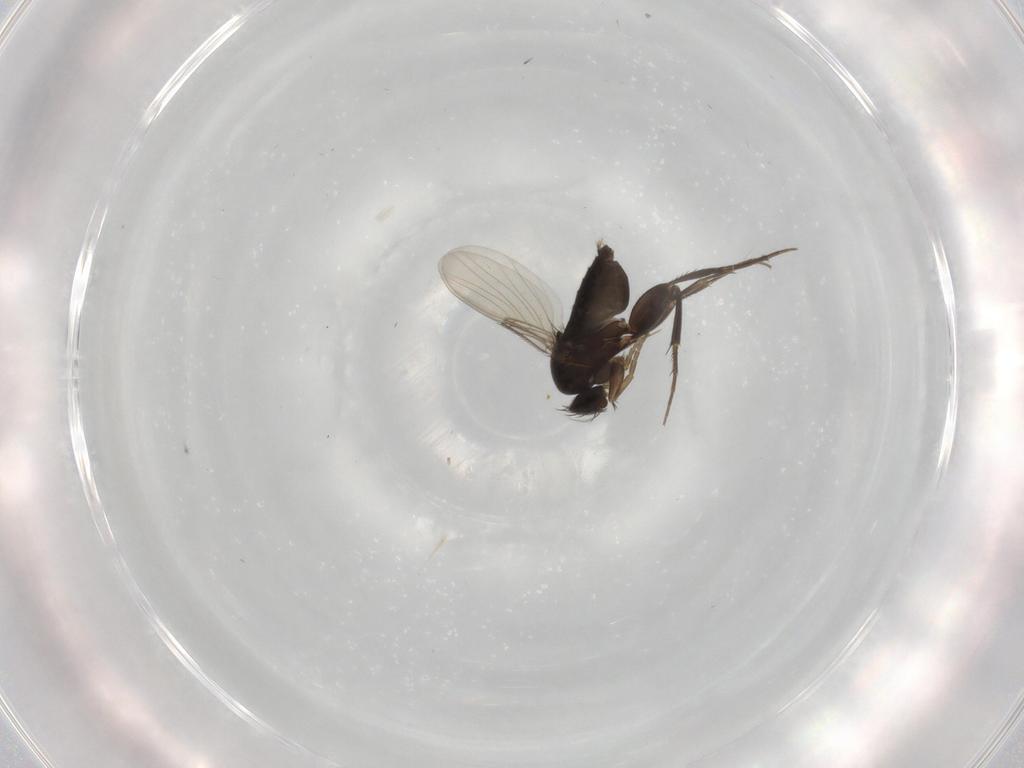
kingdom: Animalia
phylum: Arthropoda
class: Insecta
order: Diptera
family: Phoridae
